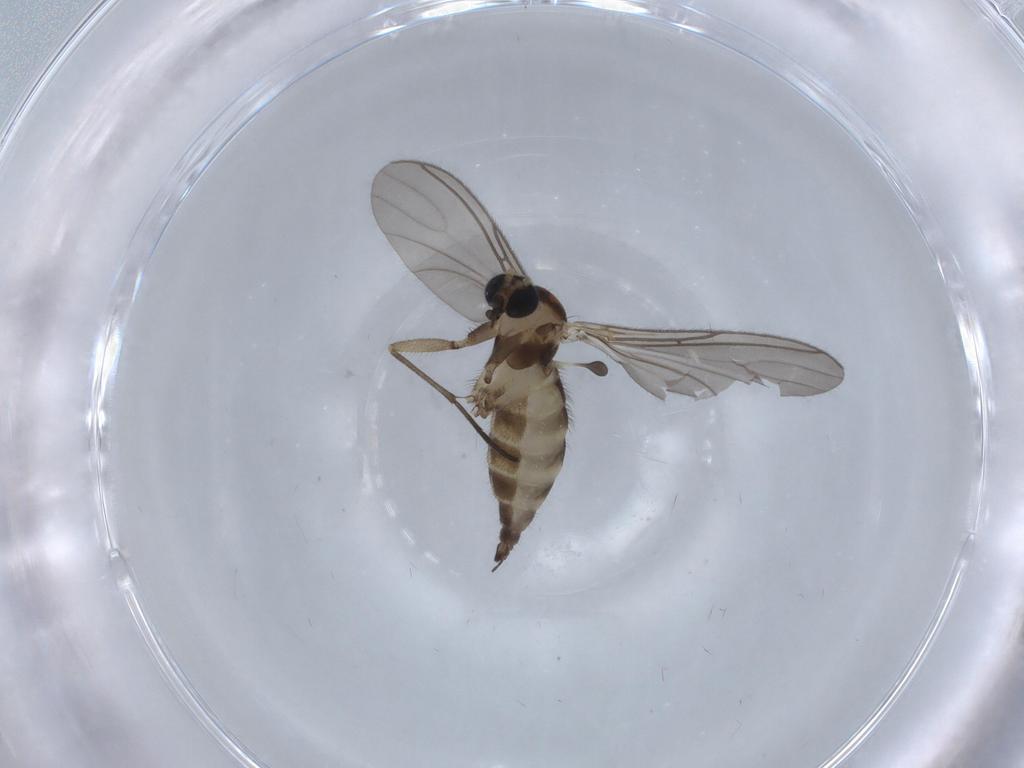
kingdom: Animalia
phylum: Arthropoda
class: Insecta
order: Diptera
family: Sciaridae
